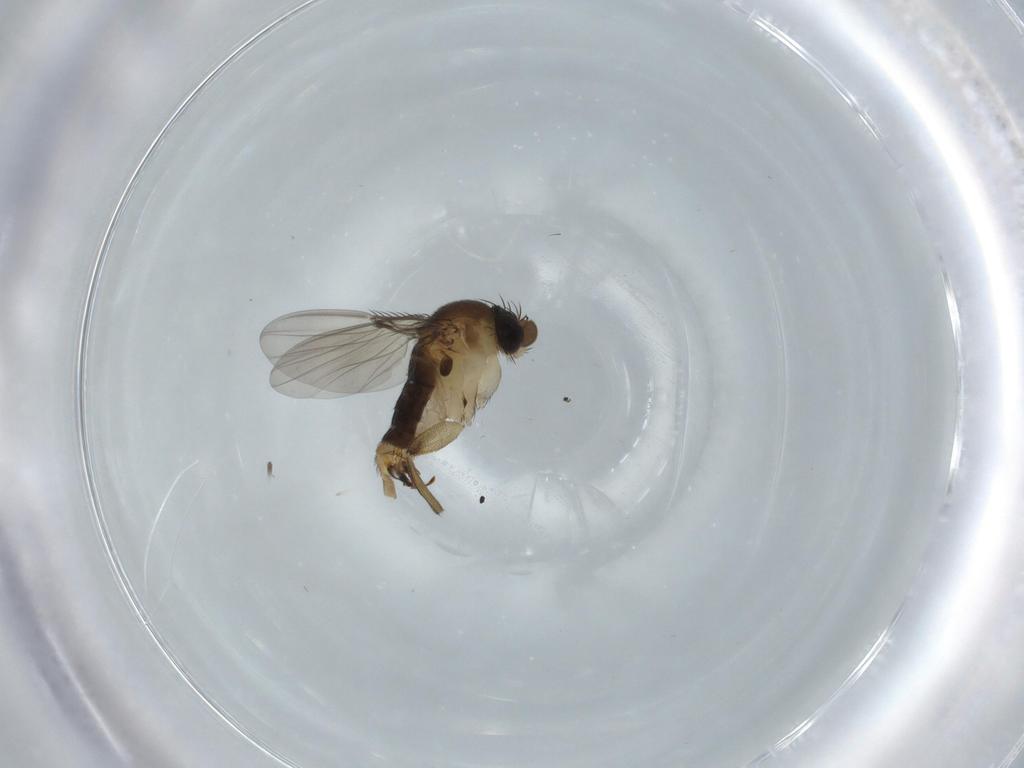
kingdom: Animalia
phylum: Arthropoda
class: Insecta
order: Diptera
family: Phoridae
